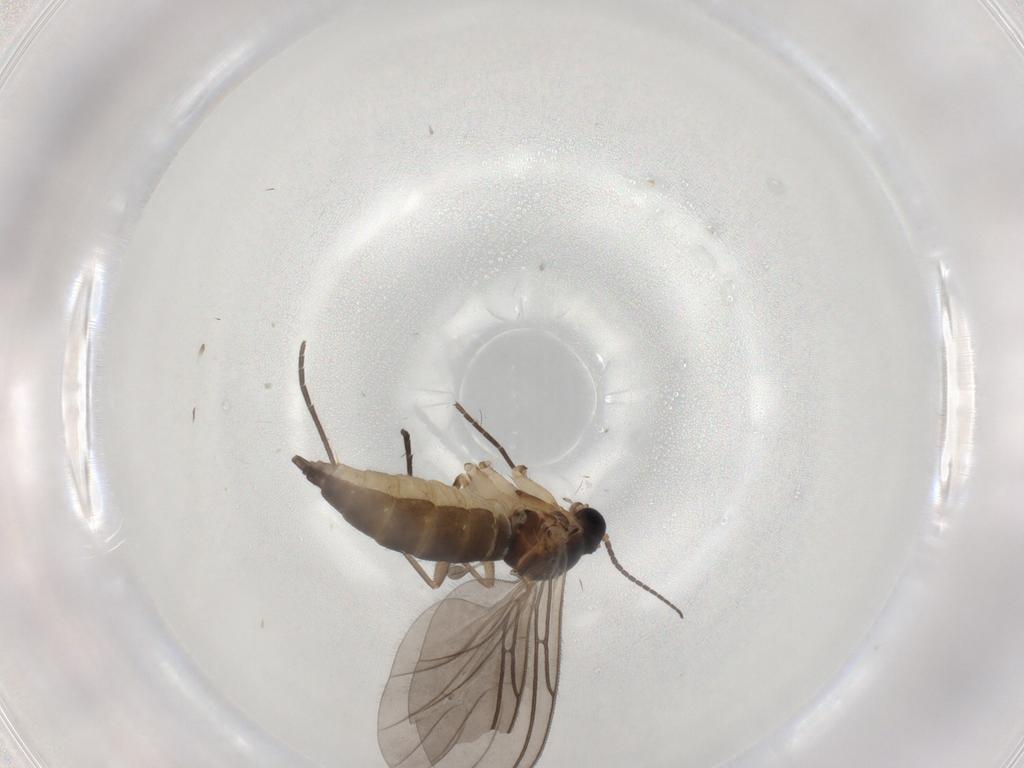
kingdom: Animalia
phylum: Arthropoda
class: Insecta
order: Diptera
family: Sciaridae
